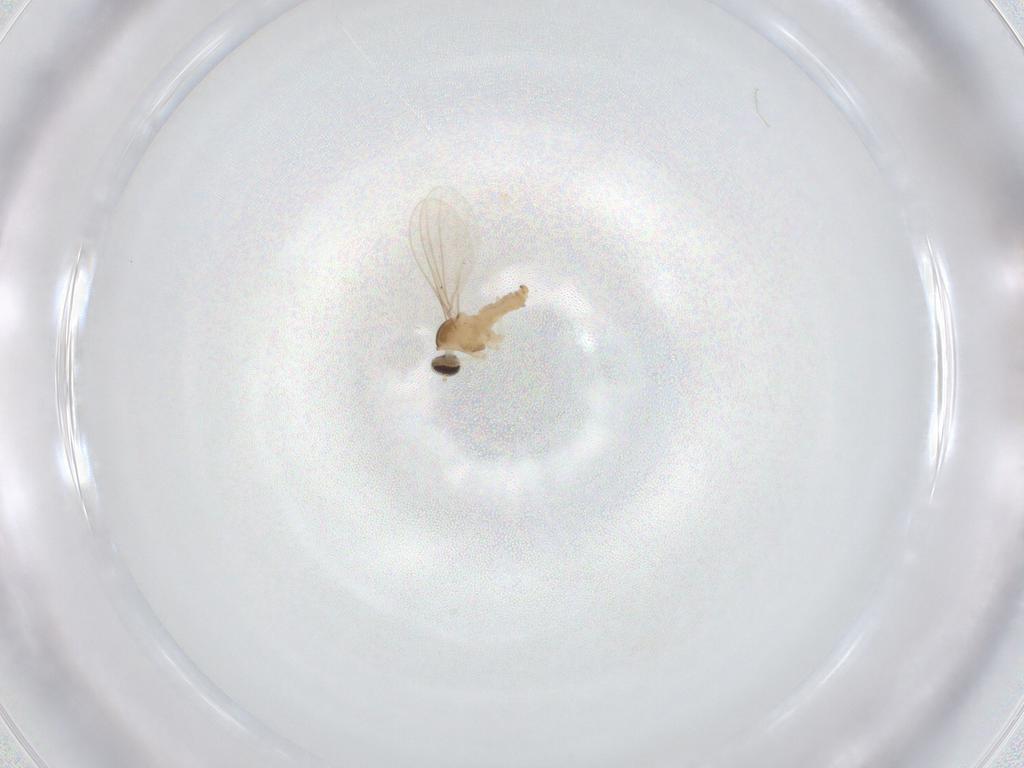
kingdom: Animalia
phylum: Arthropoda
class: Insecta
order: Diptera
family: Cecidomyiidae
